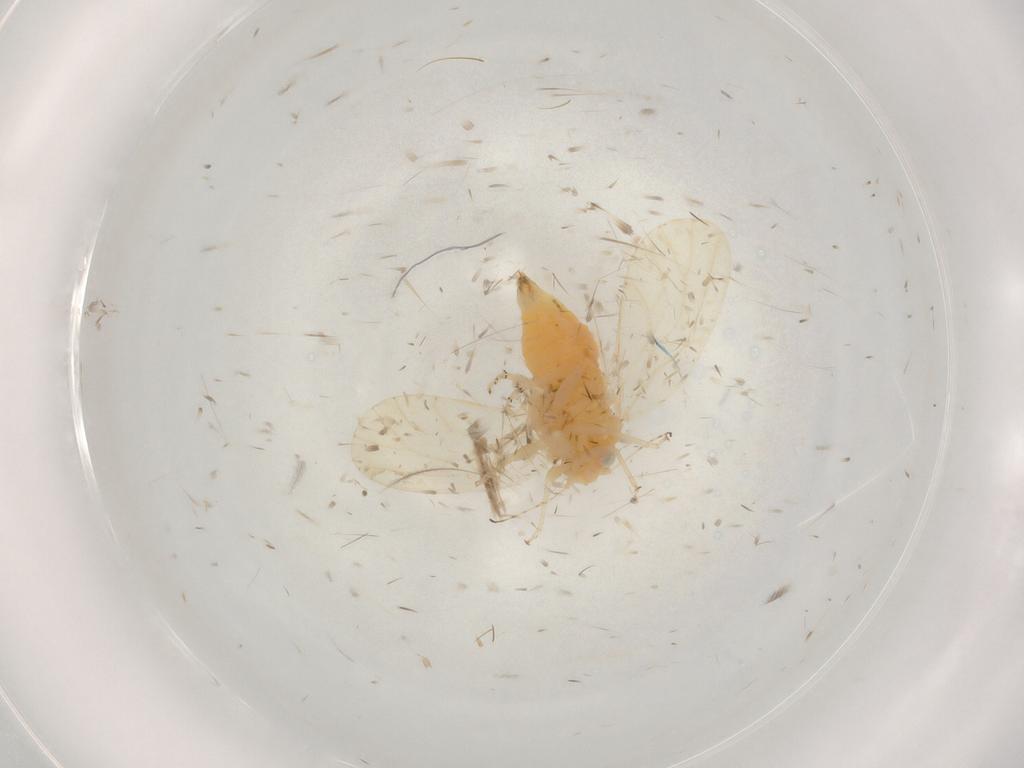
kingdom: Animalia
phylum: Arthropoda
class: Insecta
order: Hemiptera
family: Psyllidae
